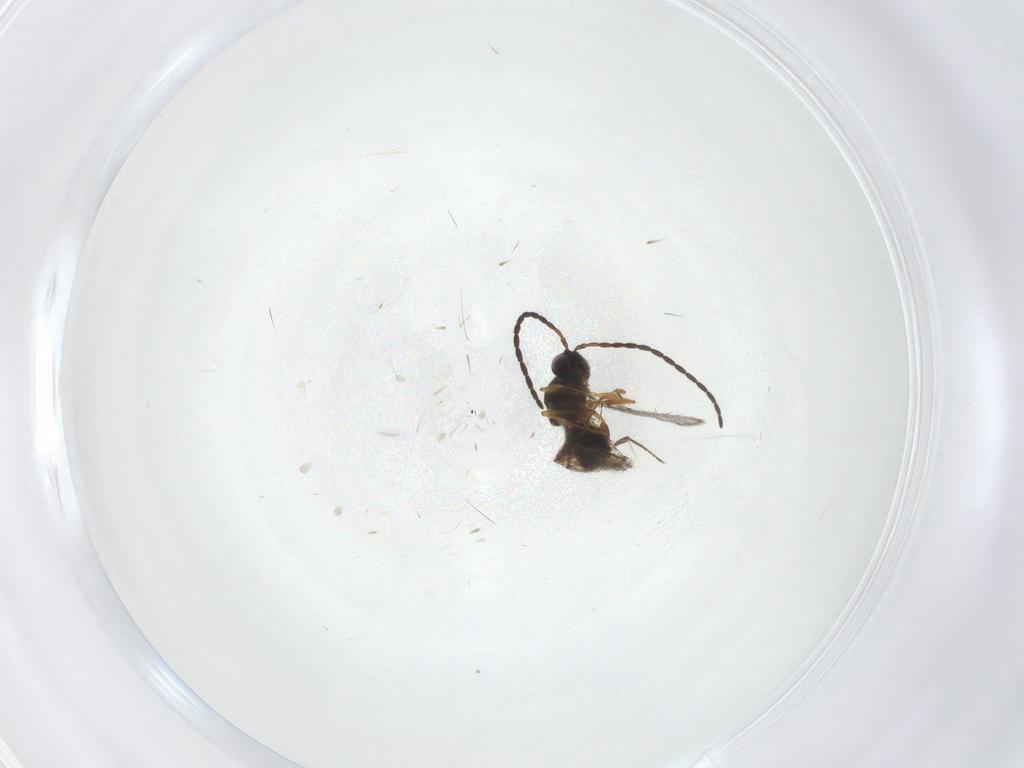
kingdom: Animalia
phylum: Arthropoda
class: Insecta
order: Hymenoptera
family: Figitidae
